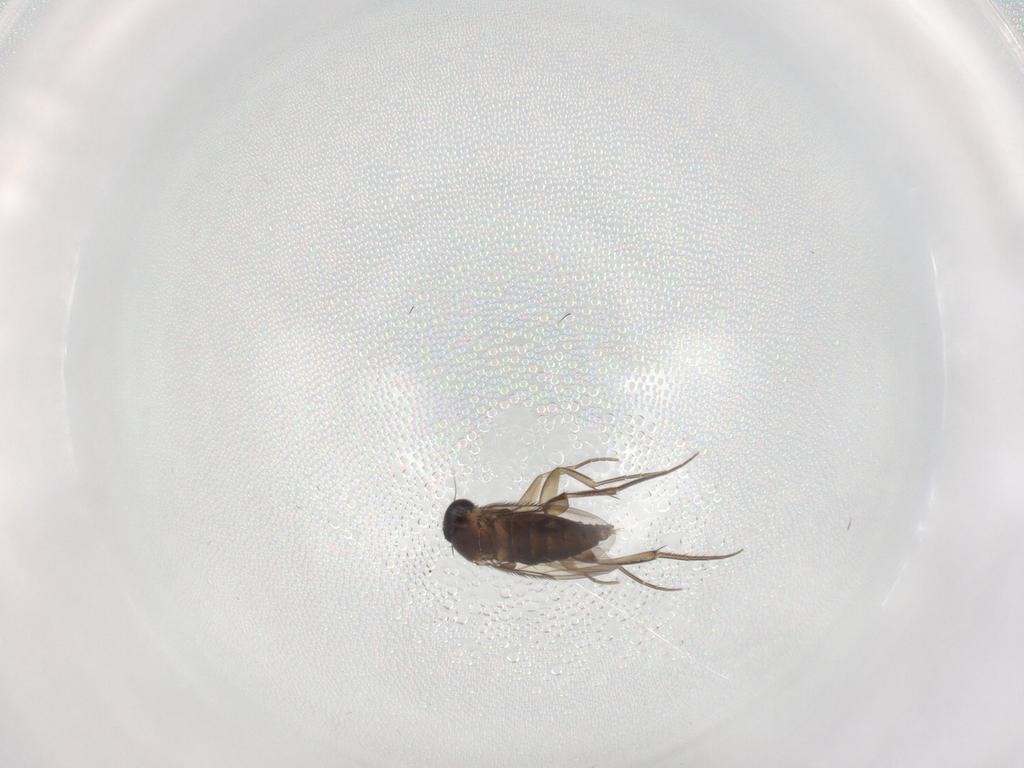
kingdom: Animalia
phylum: Arthropoda
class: Insecta
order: Diptera
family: Phoridae
